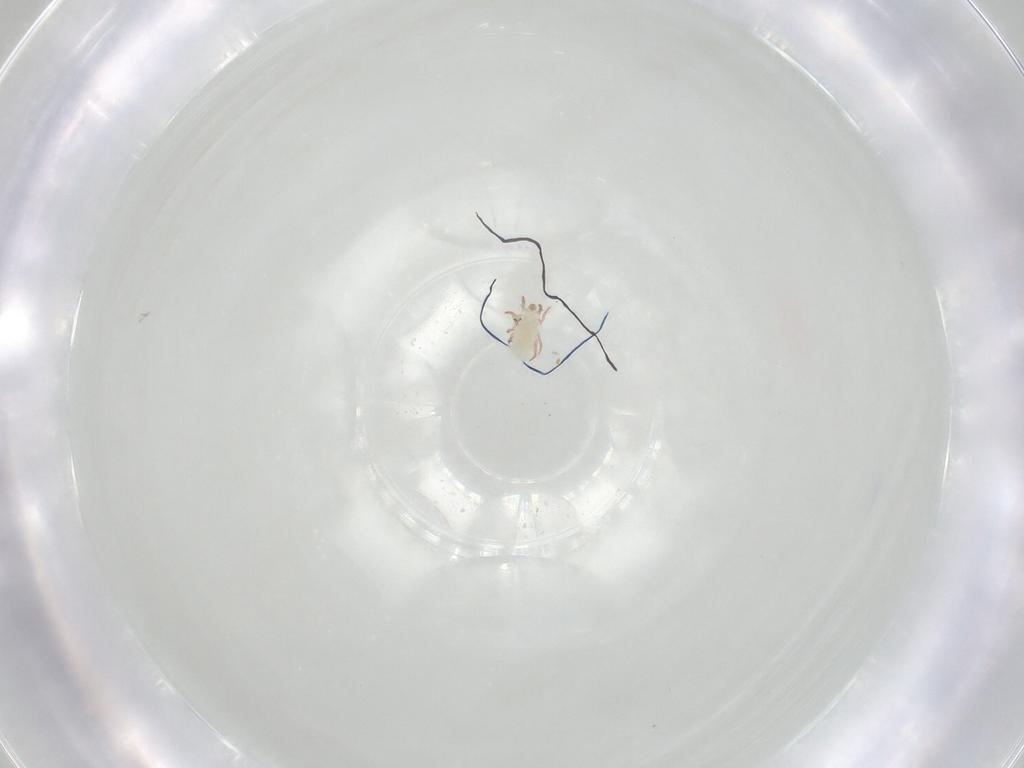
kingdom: Animalia
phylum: Arthropoda
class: Arachnida
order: Sarcoptiformes
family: Acaridae
